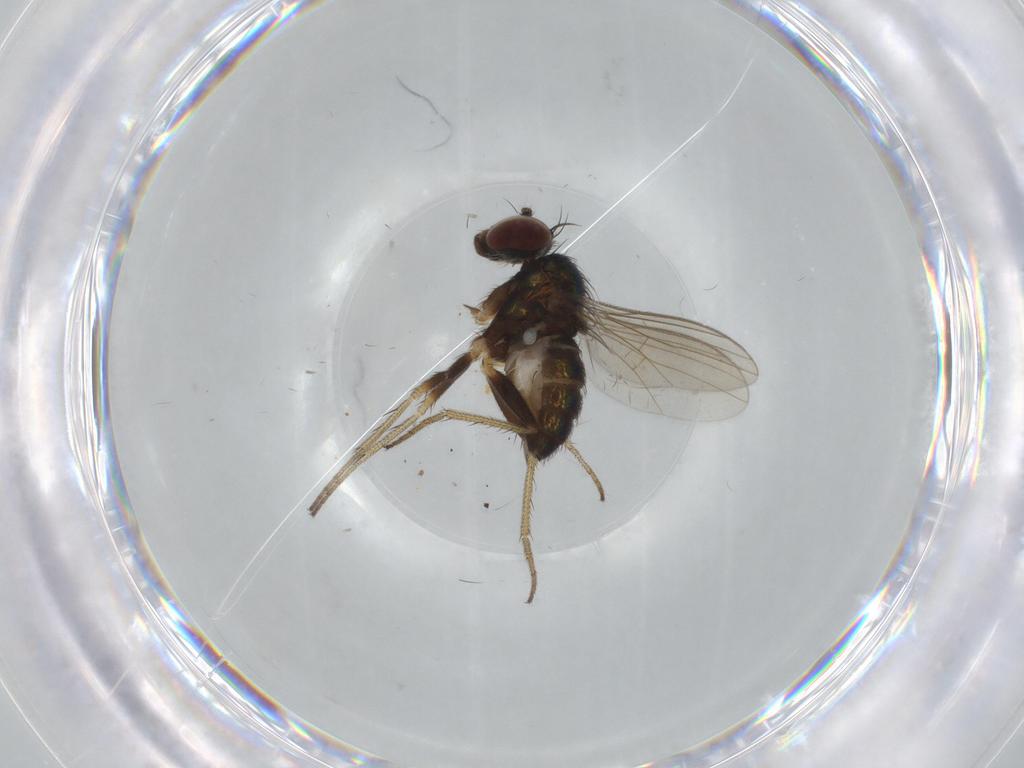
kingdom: Animalia
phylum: Arthropoda
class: Insecta
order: Diptera
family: Dolichopodidae
